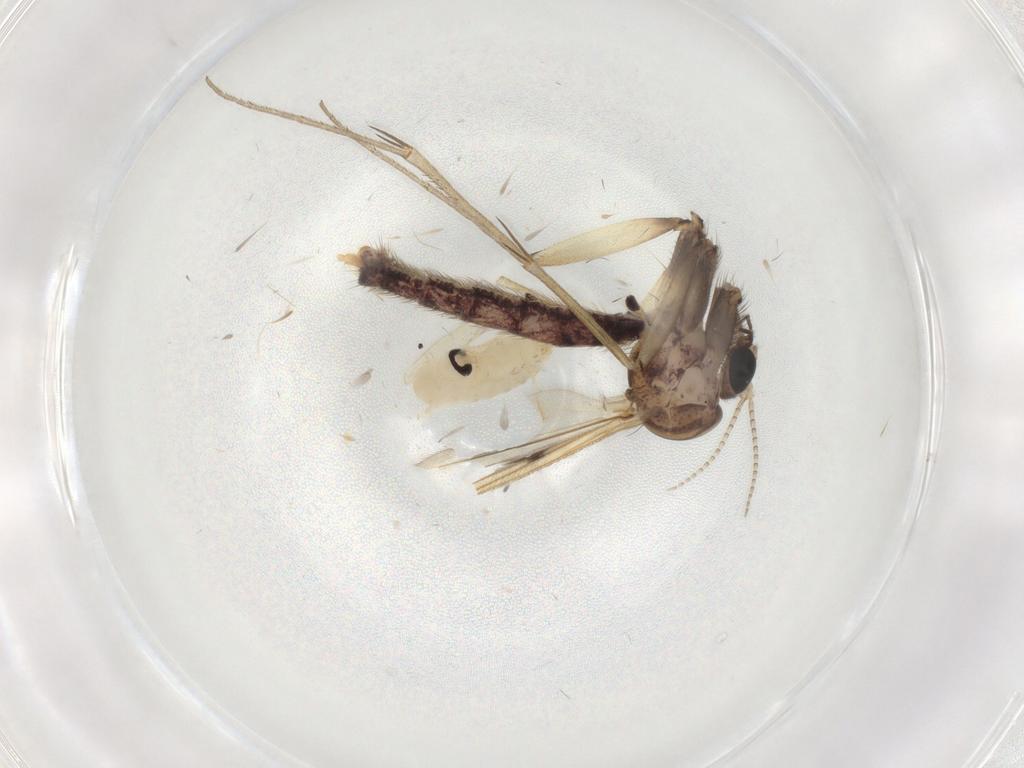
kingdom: Animalia
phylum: Arthropoda
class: Insecta
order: Diptera
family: Psychodidae
